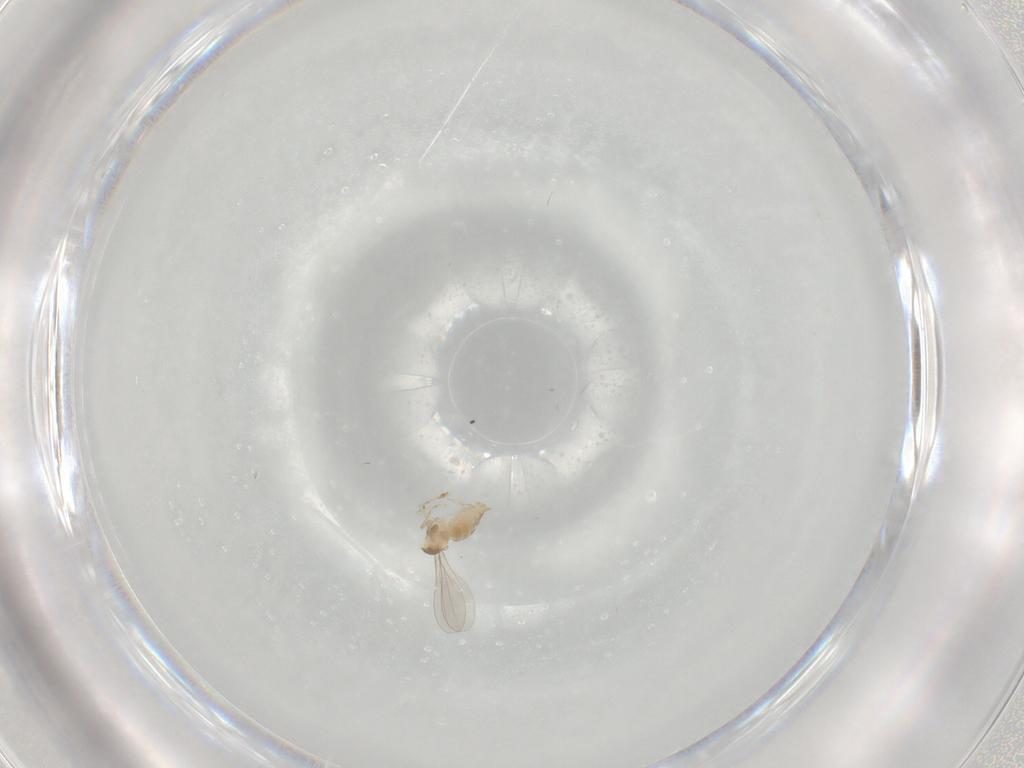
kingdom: Animalia
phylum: Arthropoda
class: Insecta
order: Diptera
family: Cecidomyiidae
